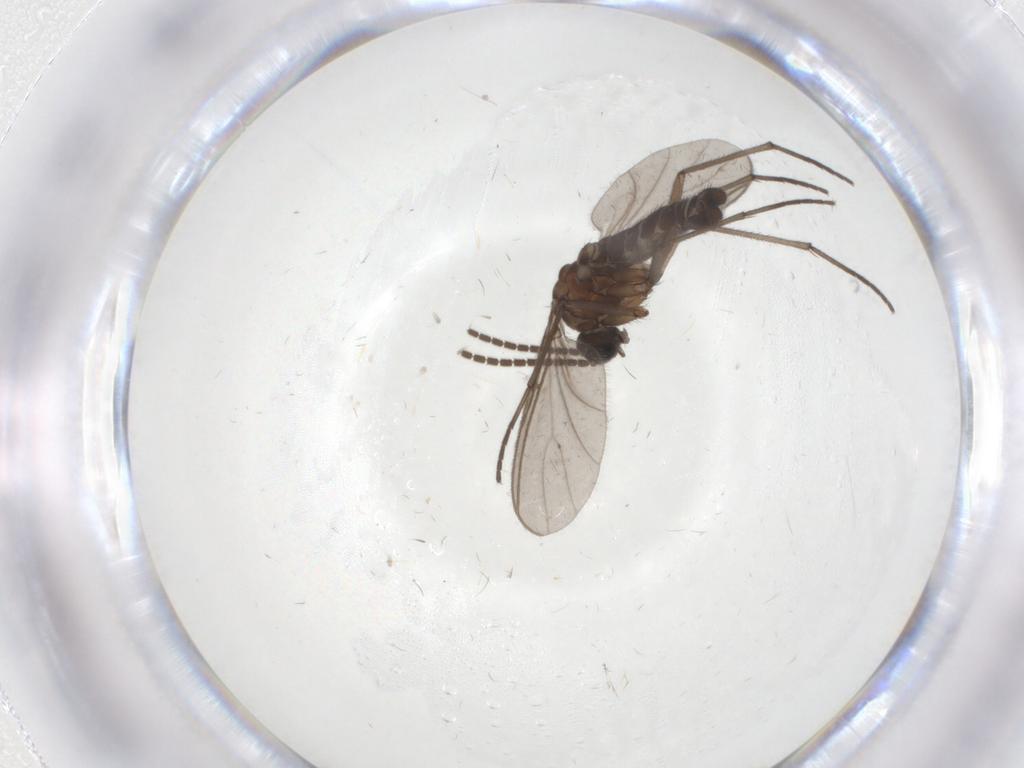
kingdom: Animalia
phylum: Arthropoda
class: Insecta
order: Diptera
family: Sciaridae
